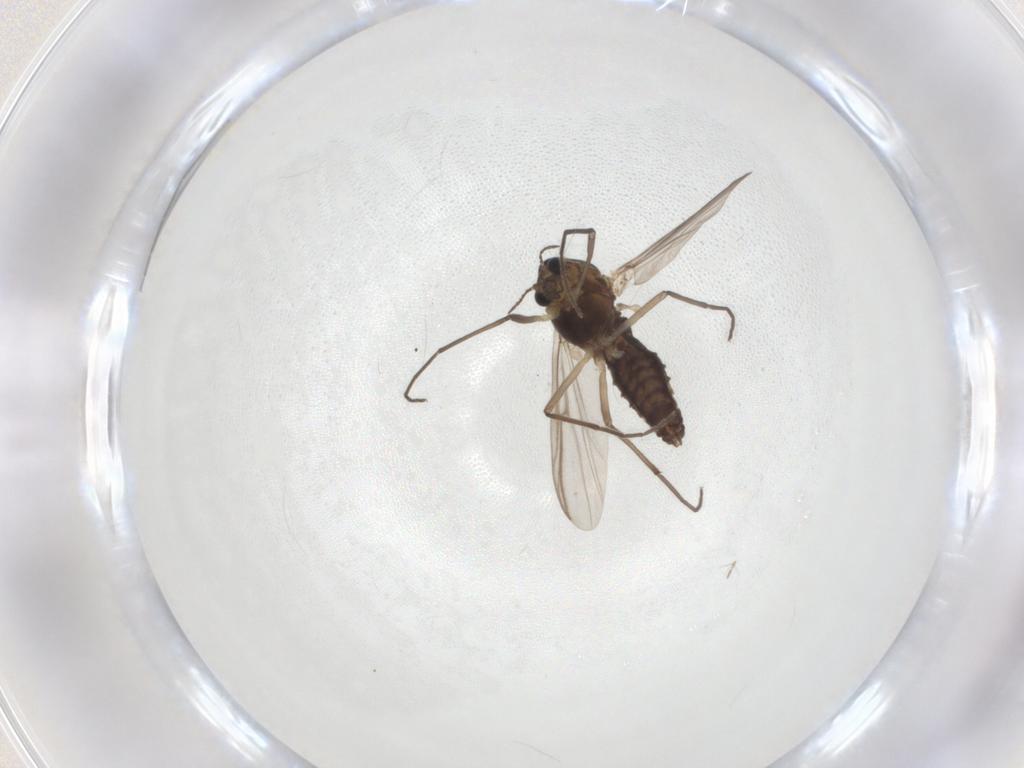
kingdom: Animalia
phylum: Arthropoda
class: Insecta
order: Diptera
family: Chironomidae
